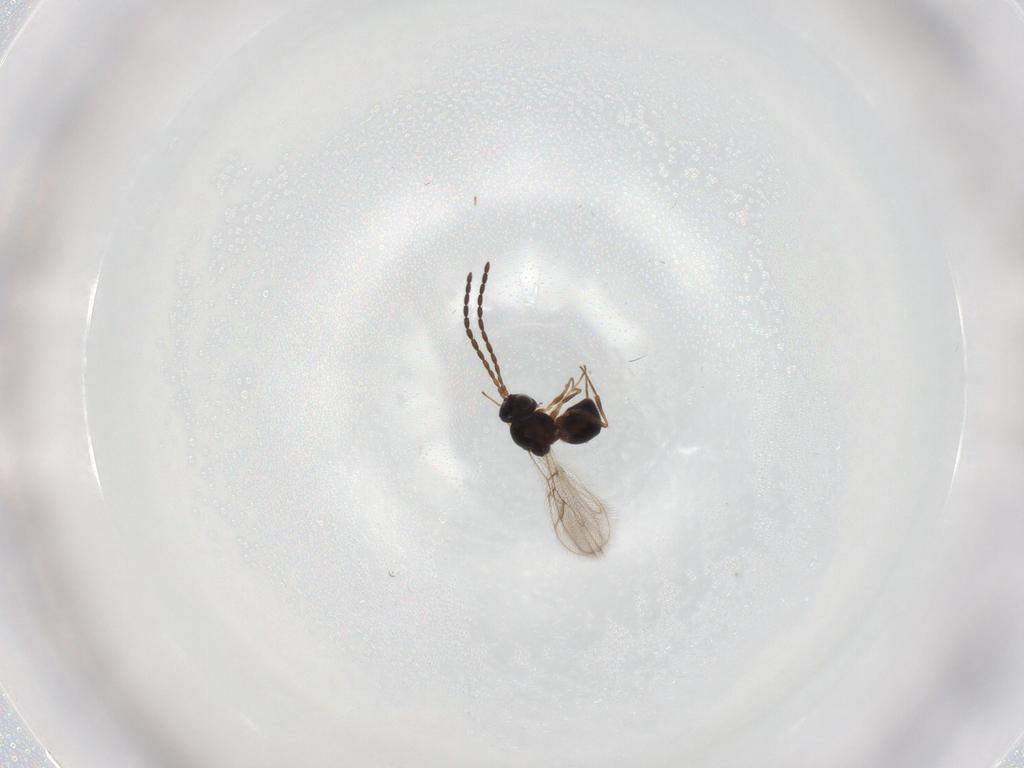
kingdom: Animalia
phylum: Arthropoda
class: Insecta
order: Hymenoptera
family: Figitidae
